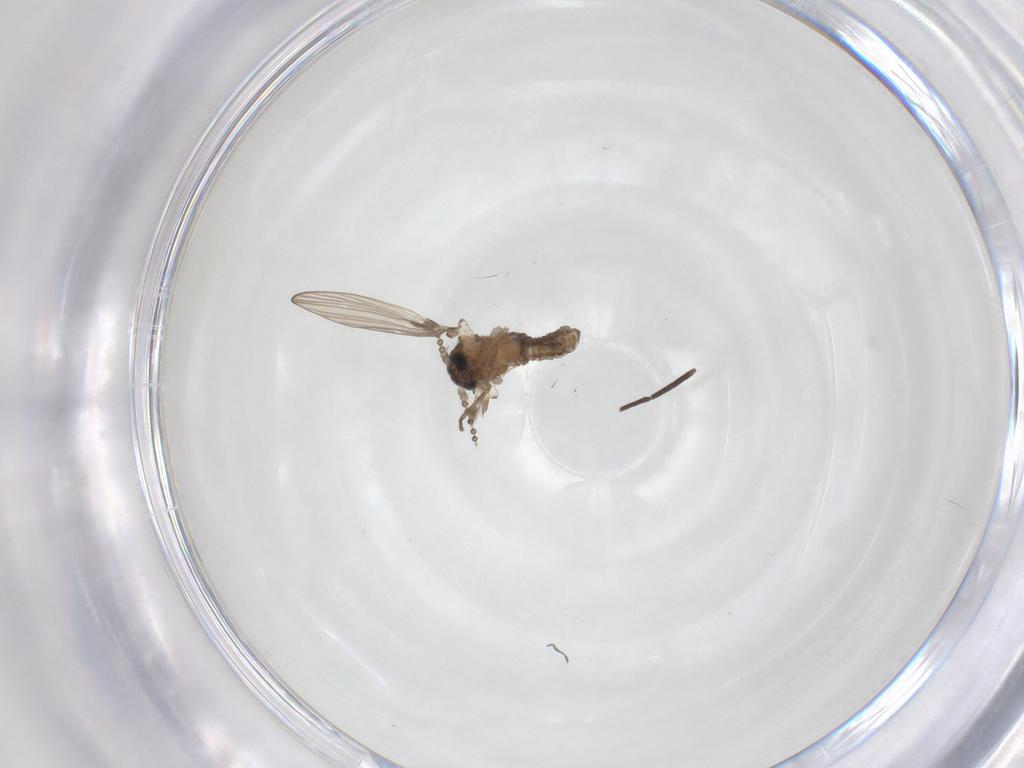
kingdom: Animalia
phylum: Arthropoda
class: Insecta
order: Diptera
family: Psychodidae
